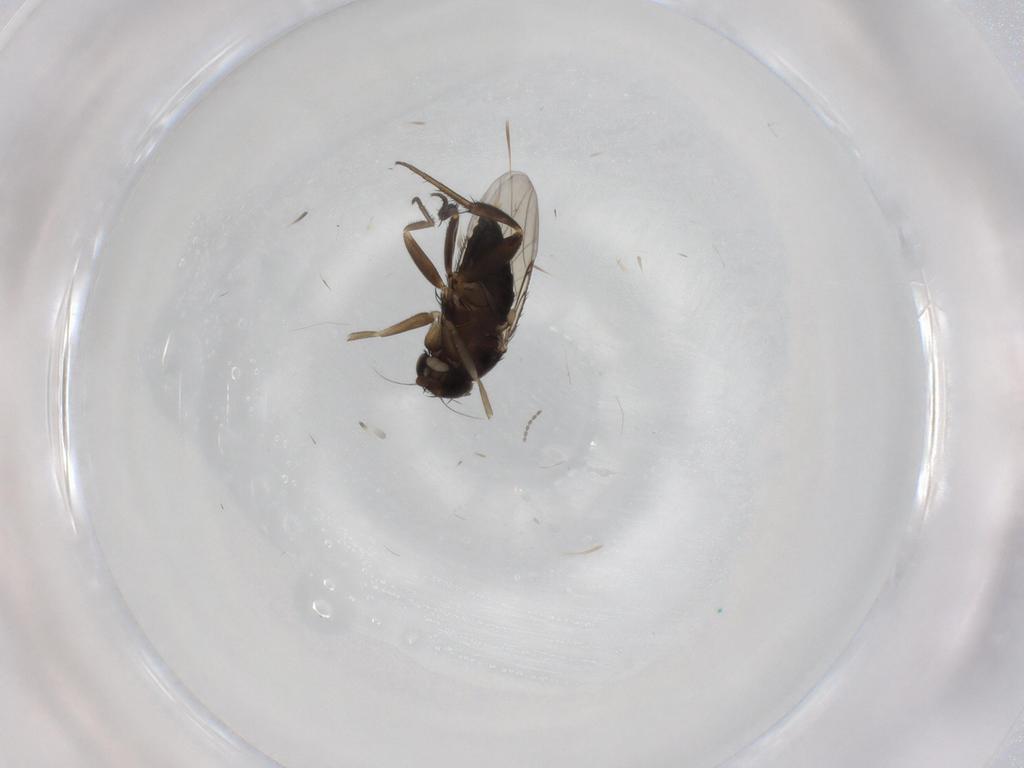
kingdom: Animalia
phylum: Arthropoda
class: Insecta
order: Diptera
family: Phoridae
